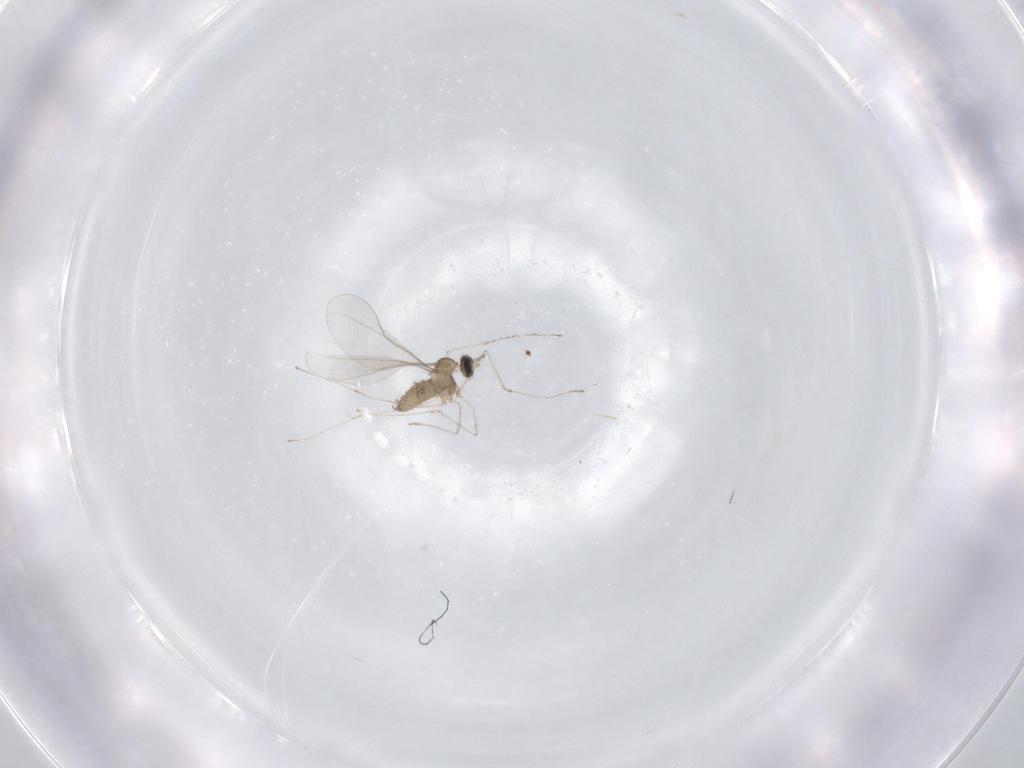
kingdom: Animalia
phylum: Arthropoda
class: Insecta
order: Diptera
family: Cecidomyiidae
